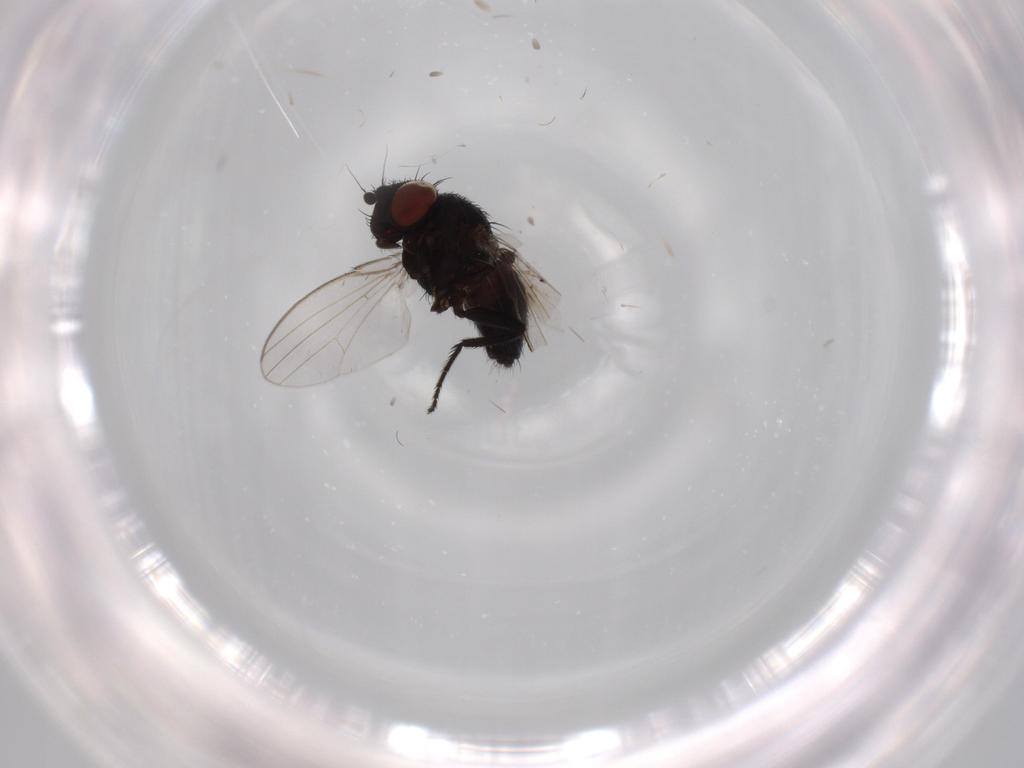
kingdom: Animalia
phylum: Arthropoda
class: Insecta
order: Diptera
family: Milichiidae
